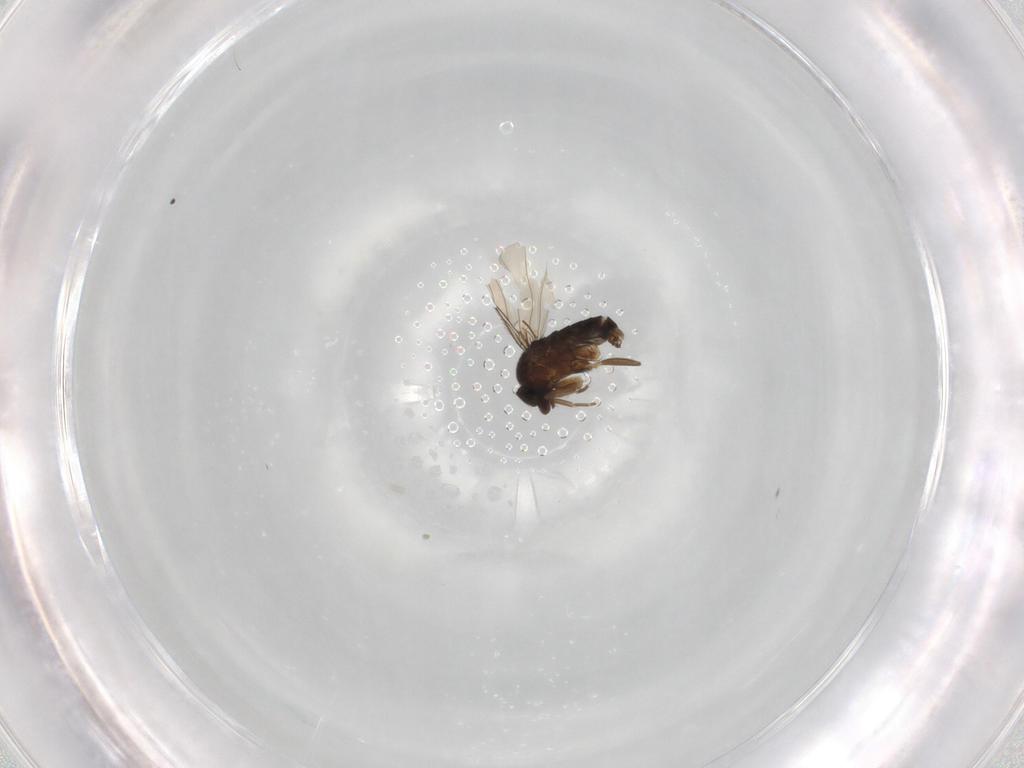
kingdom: Animalia
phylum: Arthropoda
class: Insecta
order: Diptera
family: Phoridae
